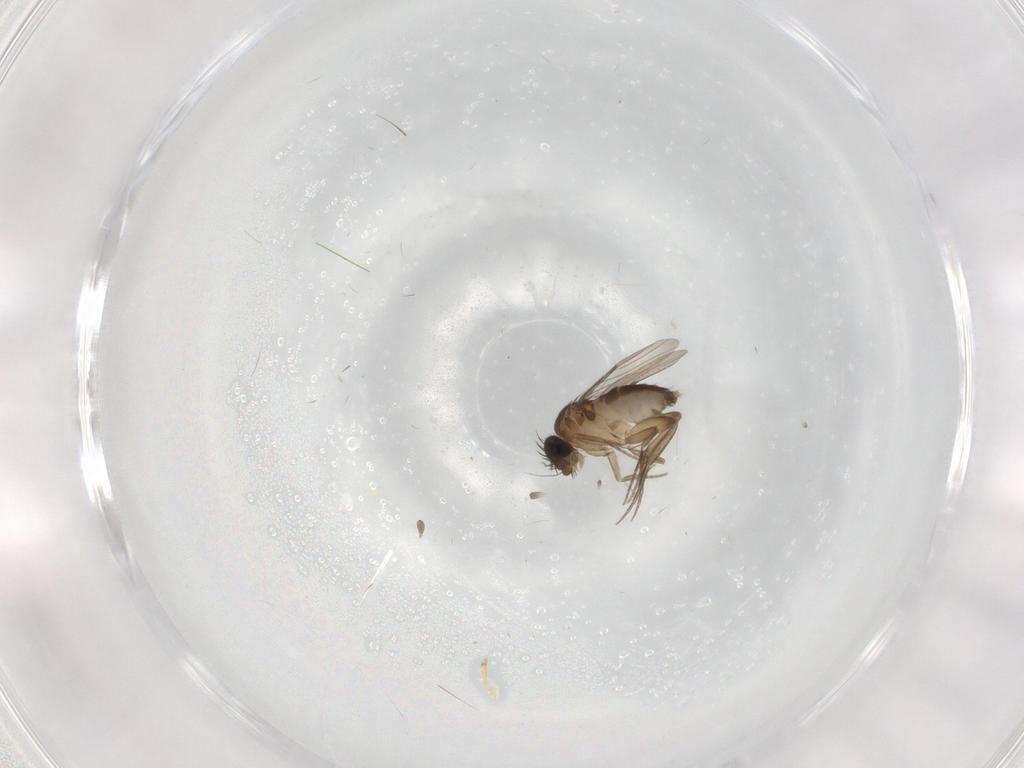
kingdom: Animalia
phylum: Arthropoda
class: Insecta
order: Diptera
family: Phoridae
